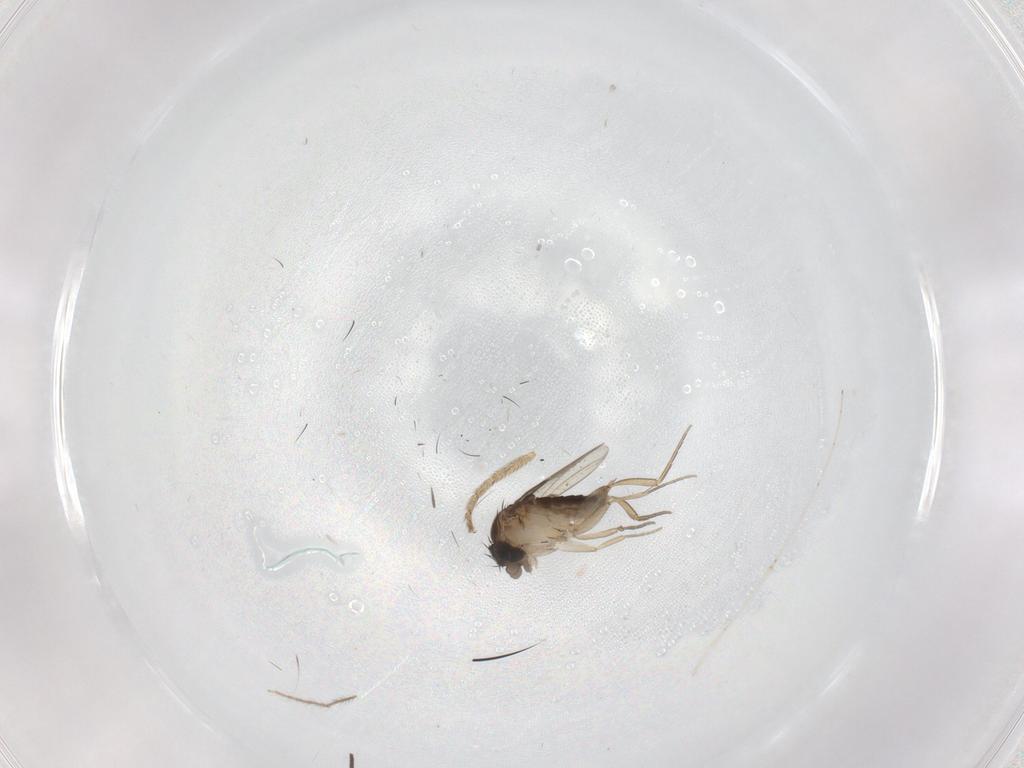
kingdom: Animalia
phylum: Arthropoda
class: Insecta
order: Diptera
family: Clusiidae
